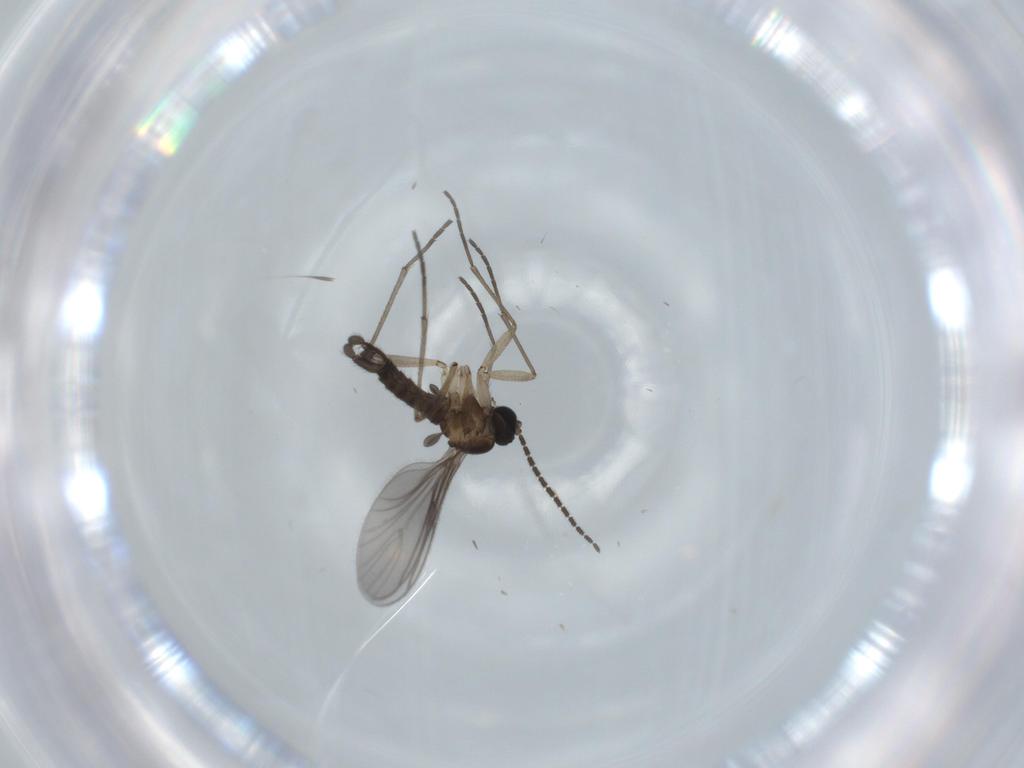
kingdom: Animalia
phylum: Arthropoda
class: Insecta
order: Diptera
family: Sciaridae
